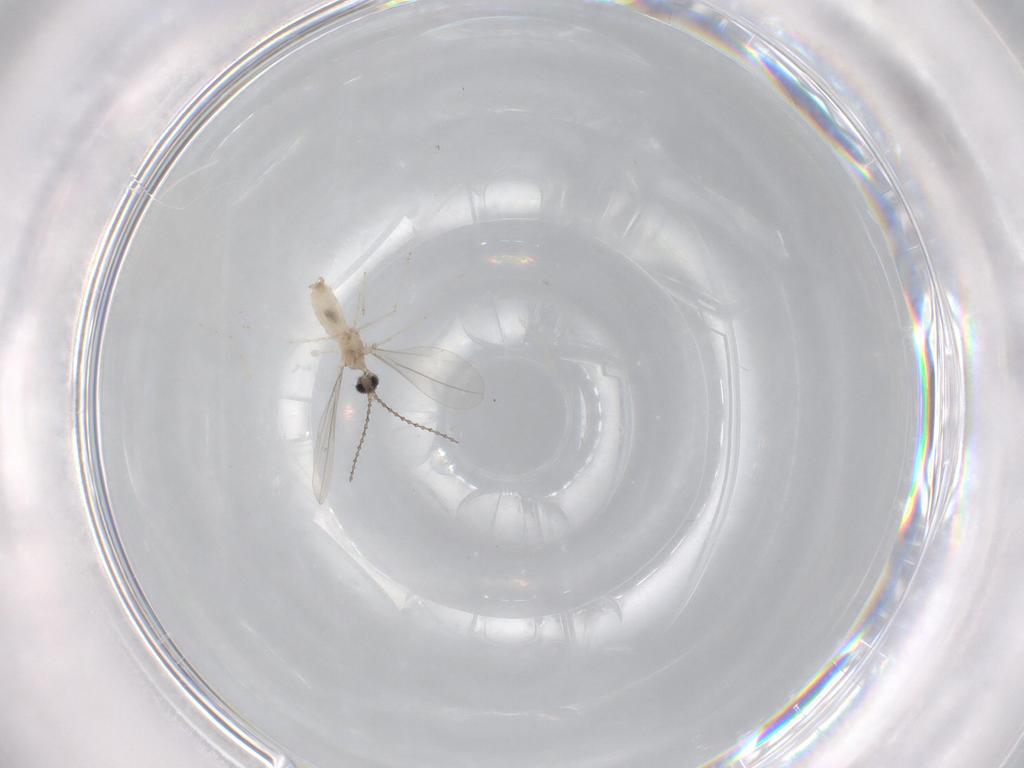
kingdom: Animalia
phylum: Arthropoda
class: Insecta
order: Diptera
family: Cecidomyiidae
